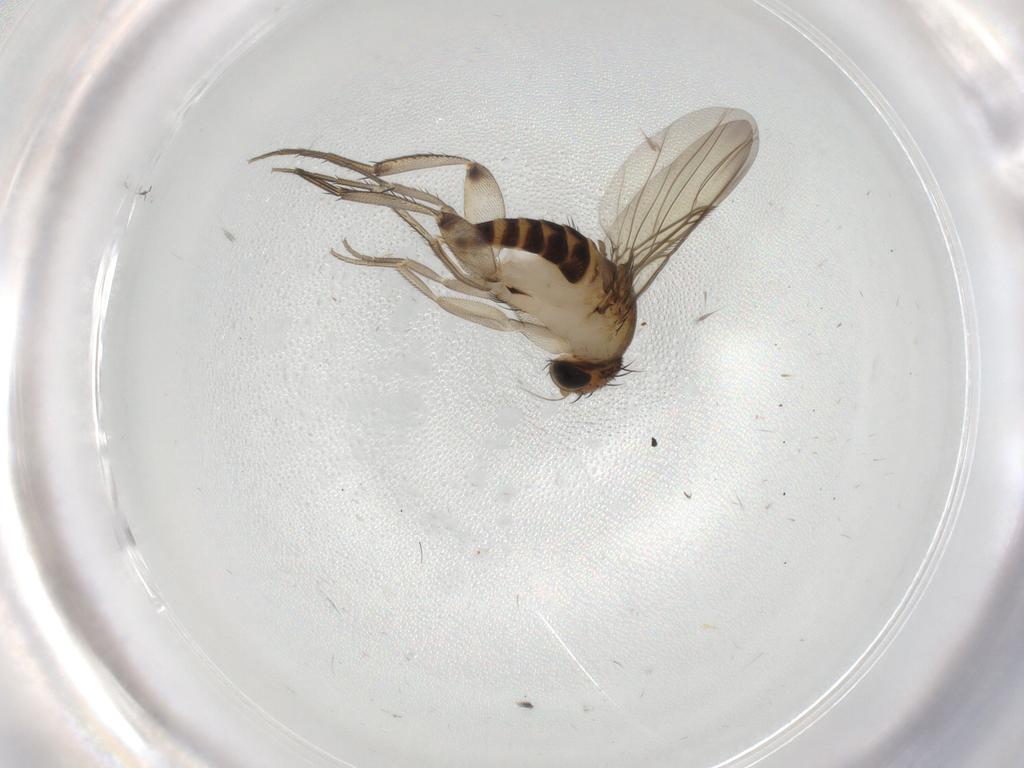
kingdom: Animalia
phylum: Arthropoda
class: Insecta
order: Diptera
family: Phoridae
